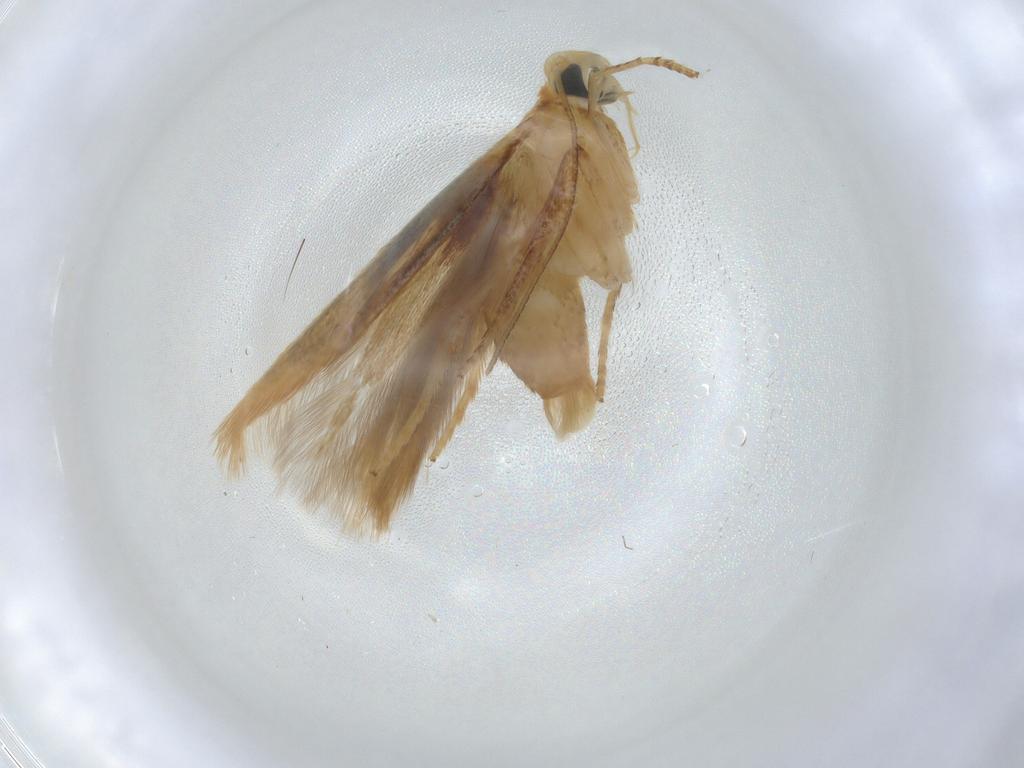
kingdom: Animalia
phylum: Arthropoda
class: Insecta
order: Lepidoptera
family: Tischeriidae
